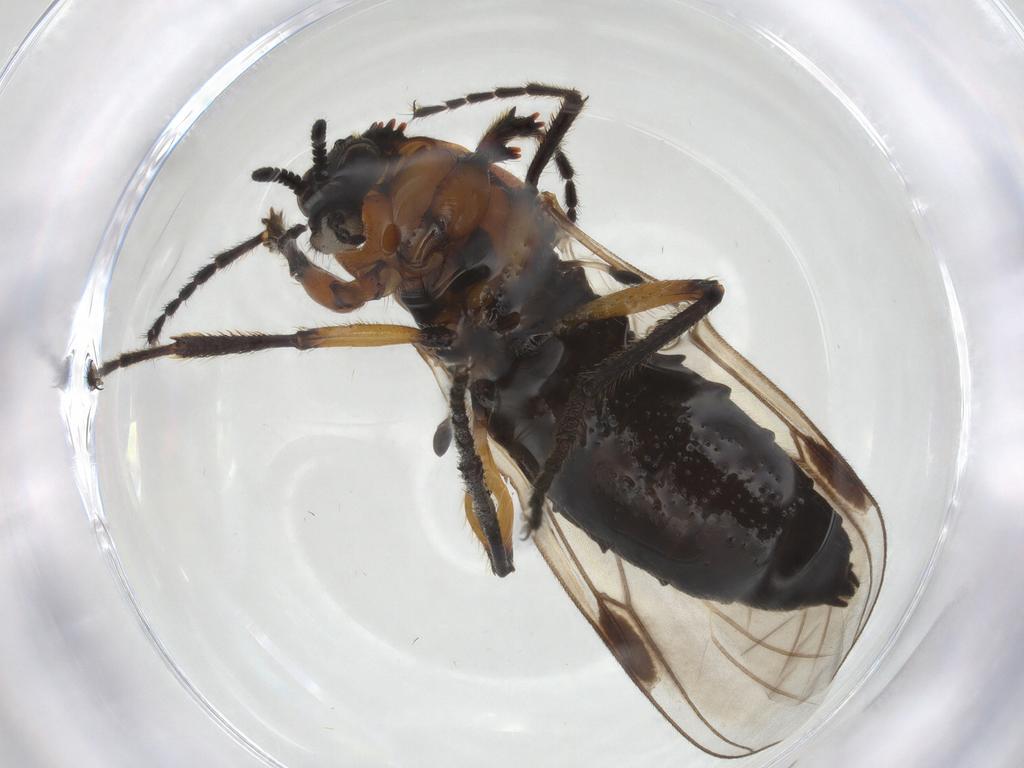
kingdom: Animalia
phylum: Arthropoda
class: Insecta
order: Diptera
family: Bibionidae
